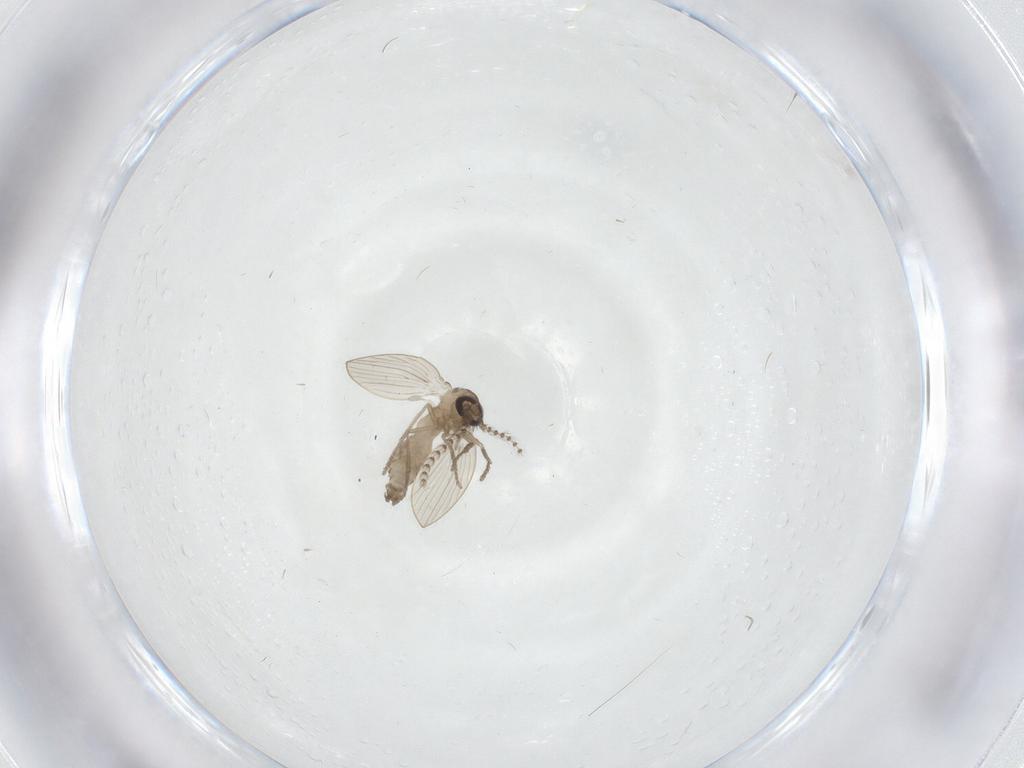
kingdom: Animalia
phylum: Arthropoda
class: Insecta
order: Diptera
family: Psychodidae
